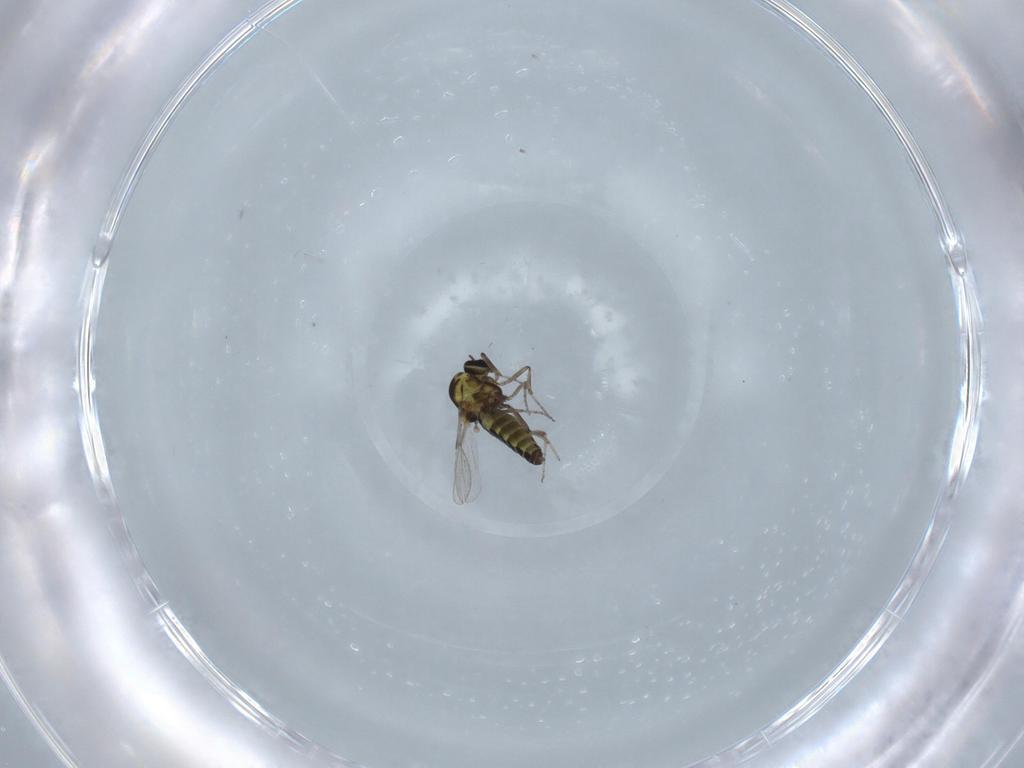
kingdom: Animalia
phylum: Arthropoda
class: Insecta
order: Diptera
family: Ceratopogonidae
